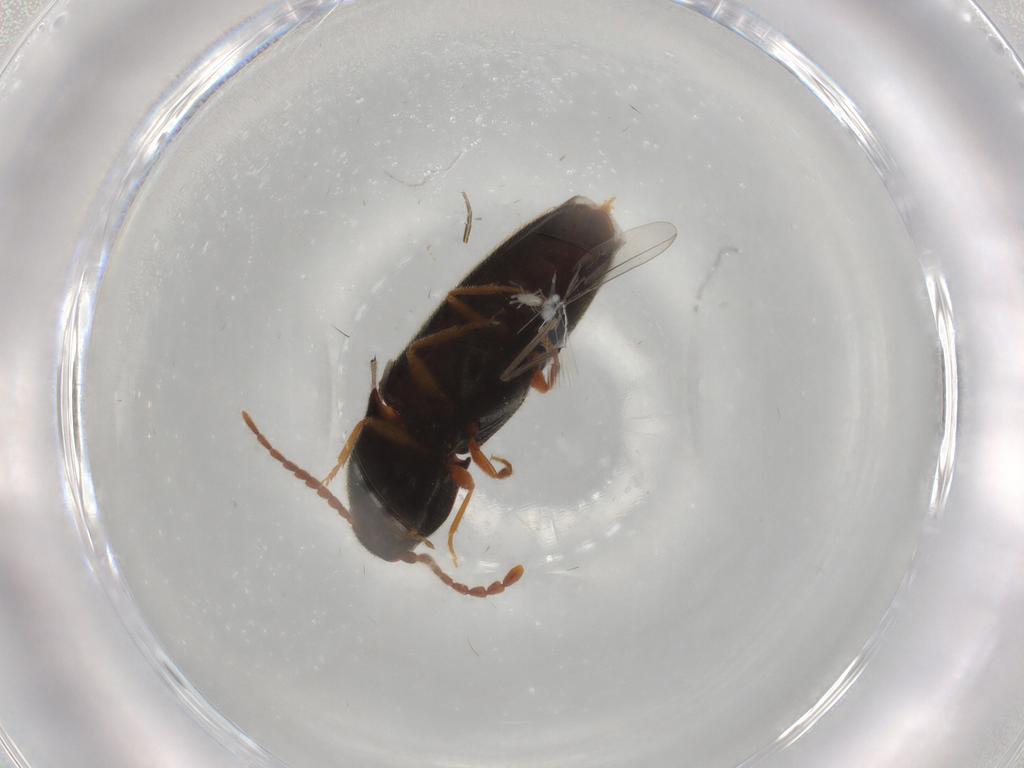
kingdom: Animalia
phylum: Arthropoda
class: Insecta
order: Coleoptera
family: Elateridae
